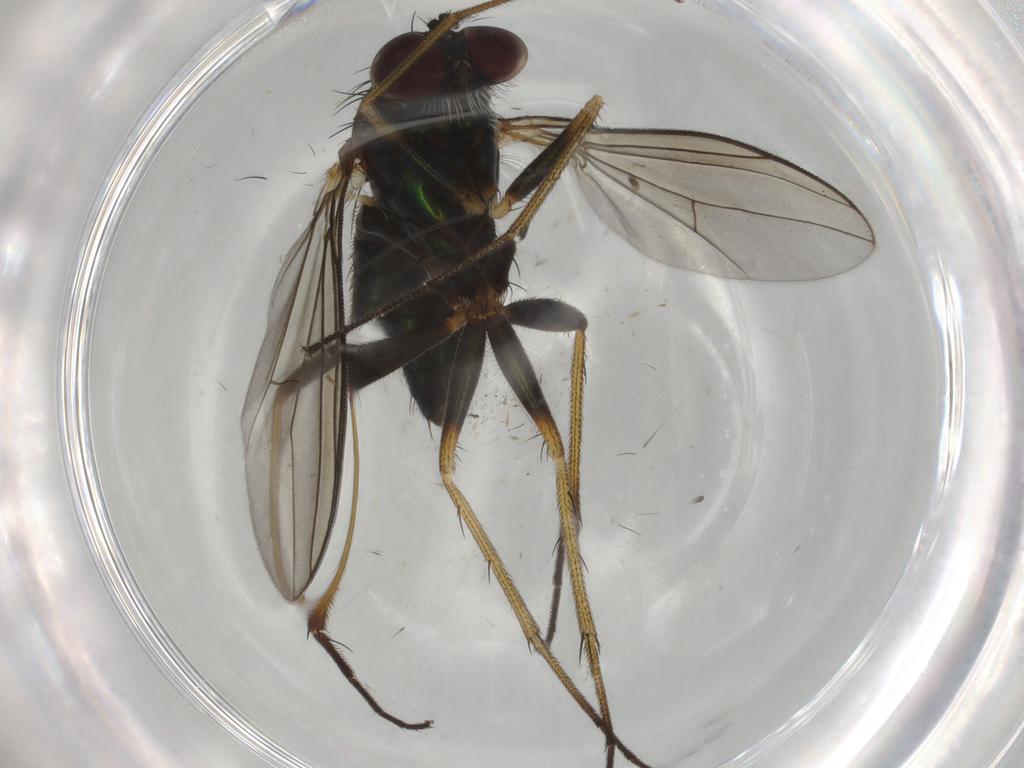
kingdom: Animalia
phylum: Arthropoda
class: Insecta
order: Diptera
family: Dolichopodidae
